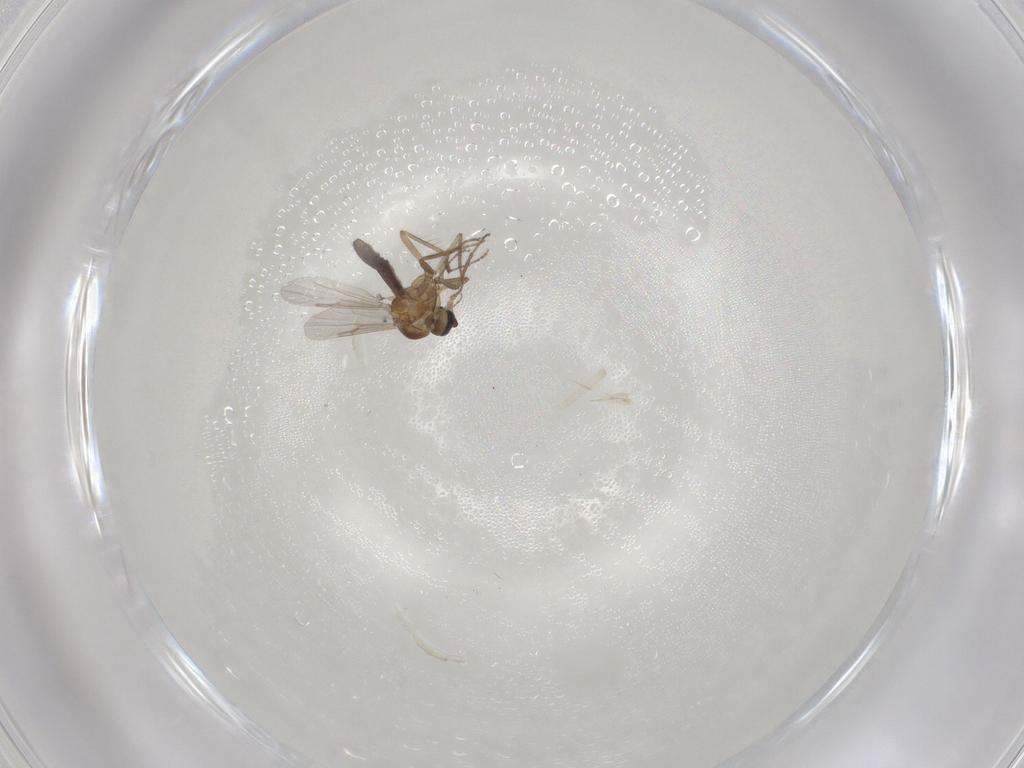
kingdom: Animalia
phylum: Arthropoda
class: Insecta
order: Diptera
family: Ceratopogonidae
